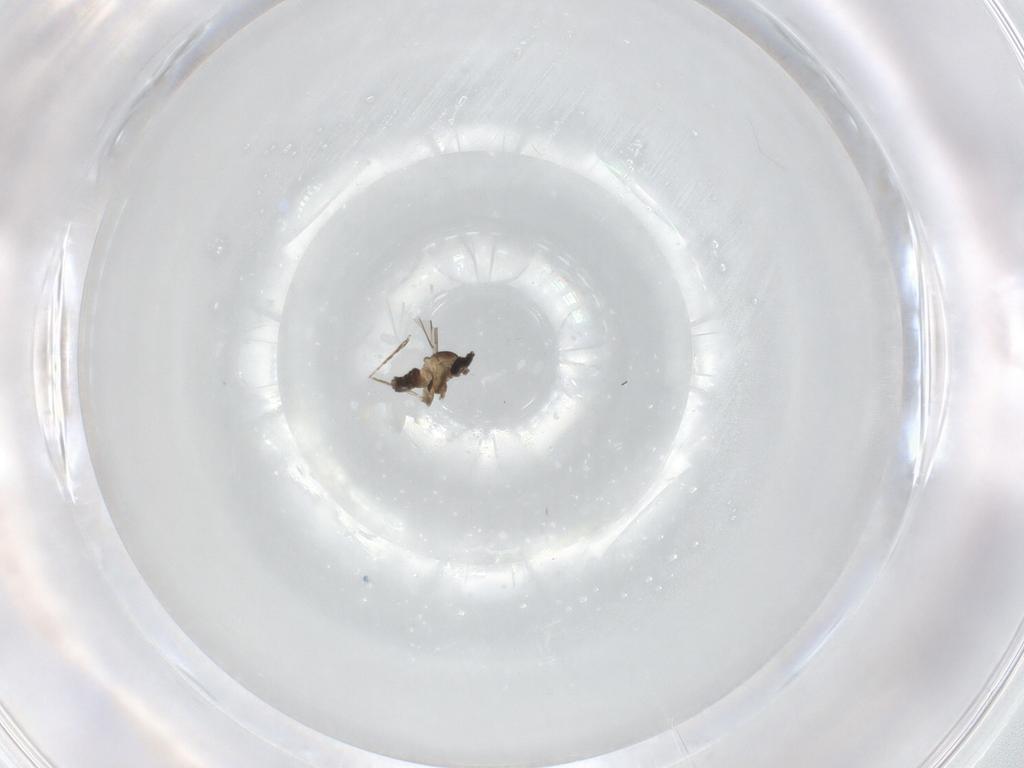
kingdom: Animalia
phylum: Arthropoda
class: Insecta
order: Diptera
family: Cecidomyiidae
